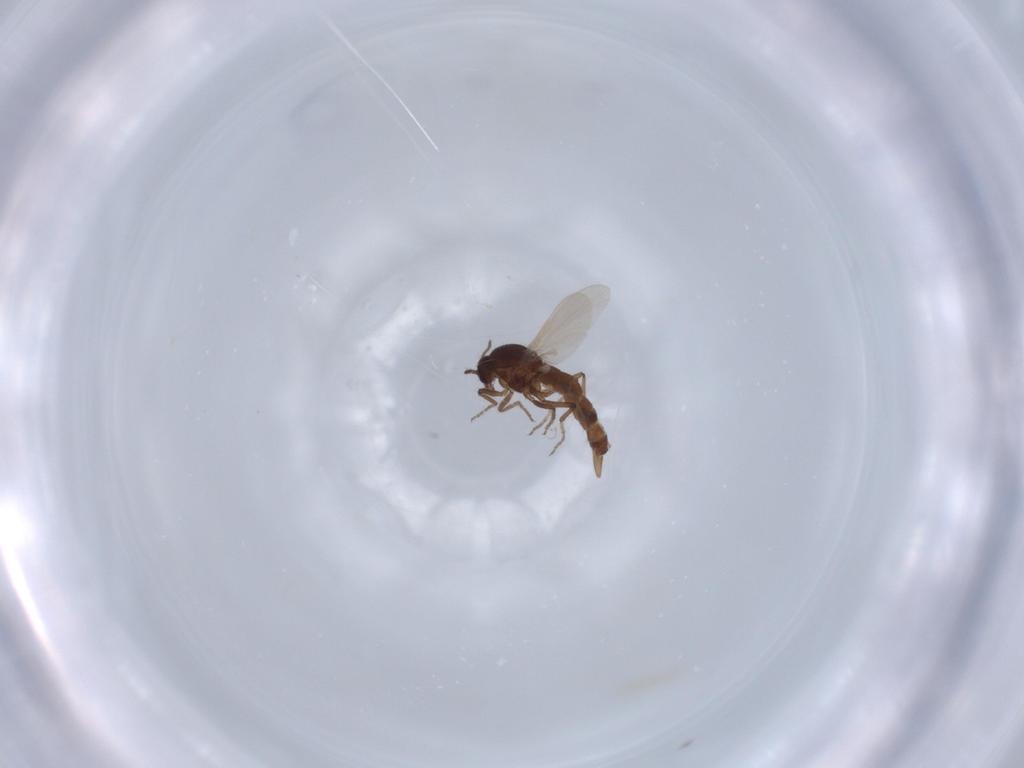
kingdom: Animalia
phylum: Arthropoda
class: Insecta
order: Diptera
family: Ceratopogonidae
